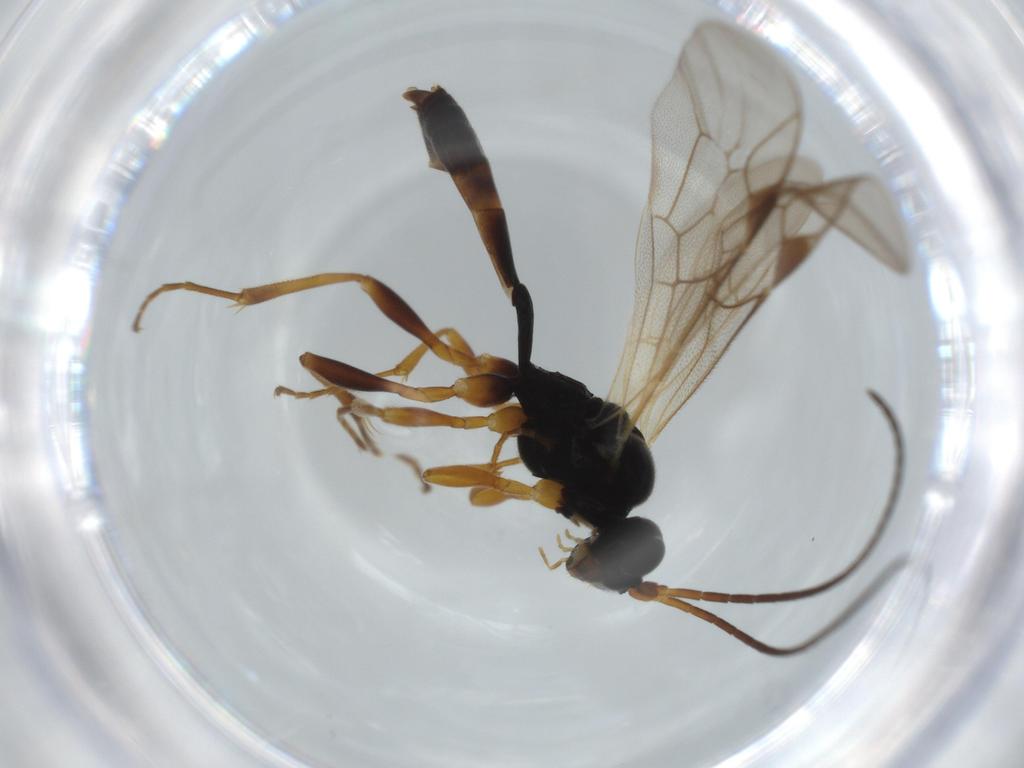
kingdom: Animalia
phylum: Arthropoda
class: Insecta
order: Hymenoptera
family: Ichneumonidae
